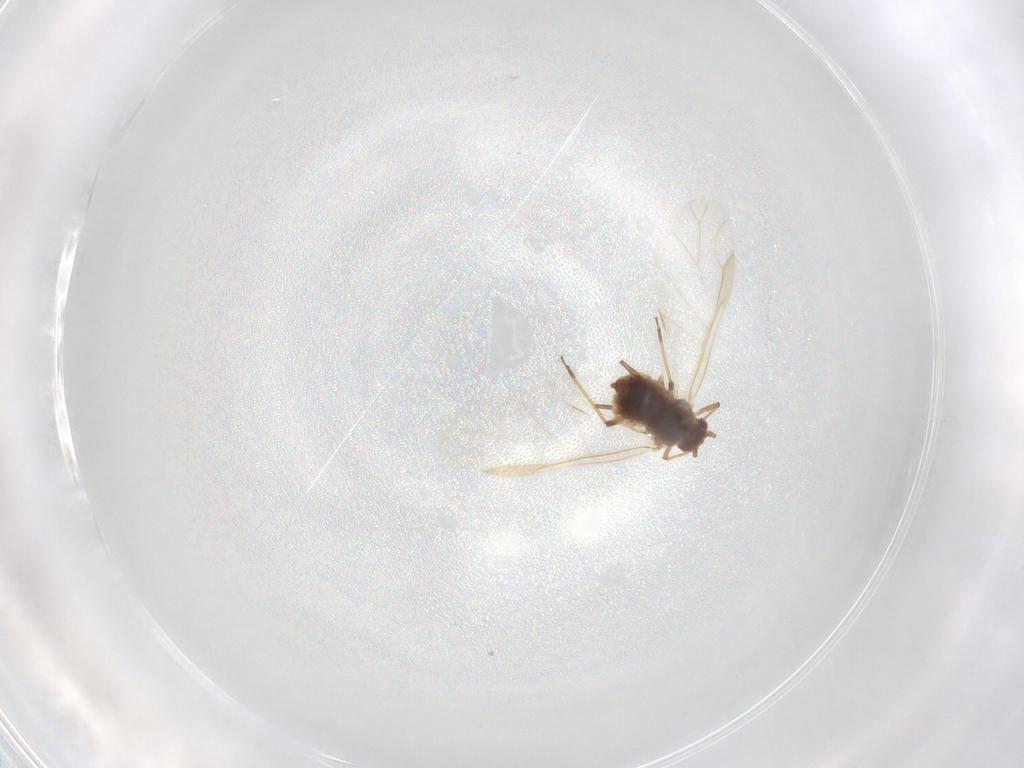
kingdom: Animalia
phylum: Arthropoda
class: Insecta
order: Hemiptera
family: Aphididae
